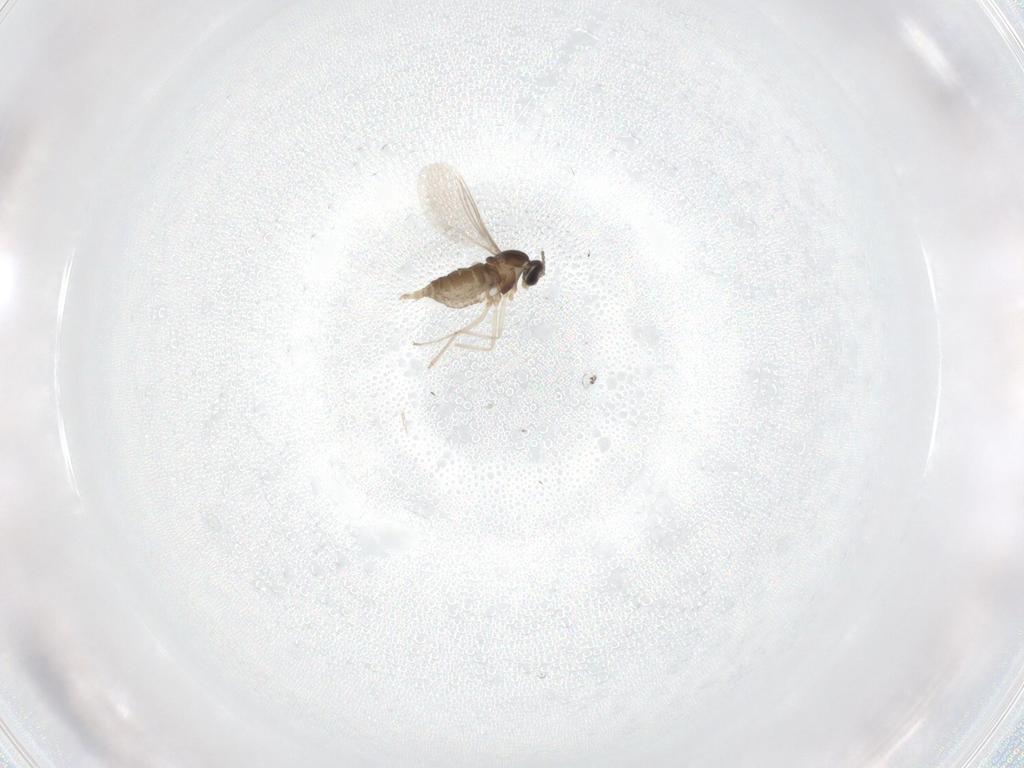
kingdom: Animalia
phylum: Arthropoda
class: Insecta
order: Diptera
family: Cecidomyiidae
